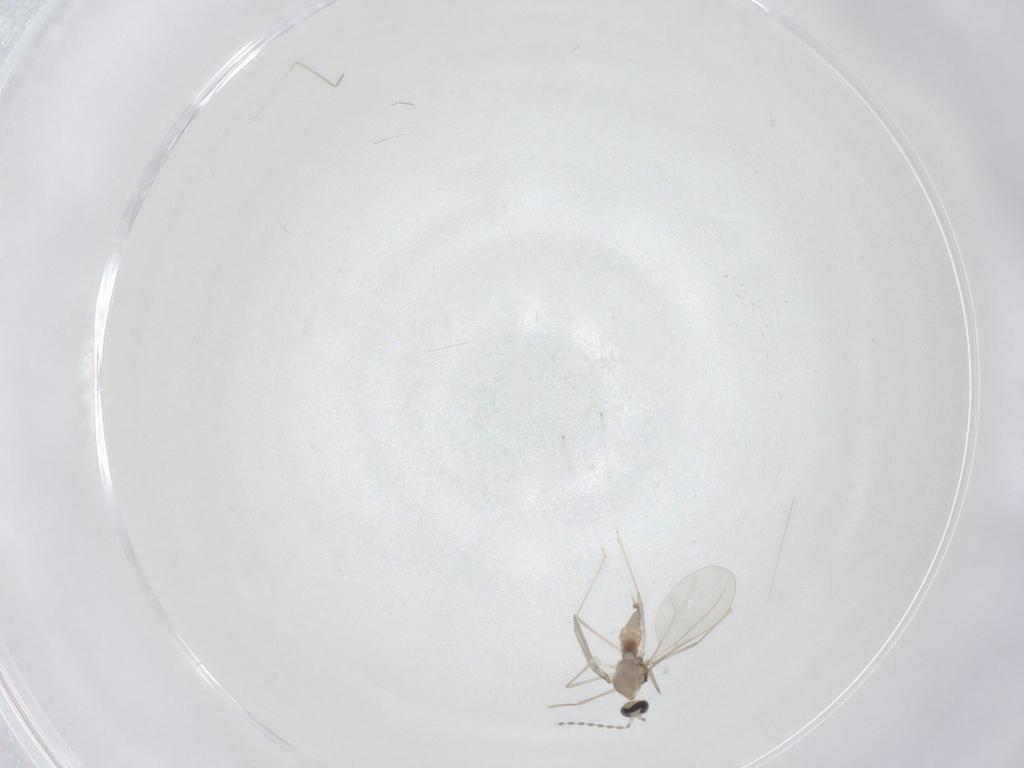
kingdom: Animalia
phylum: Arthropoda
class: Insecta
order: Diptera
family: Cecidomyiidae
